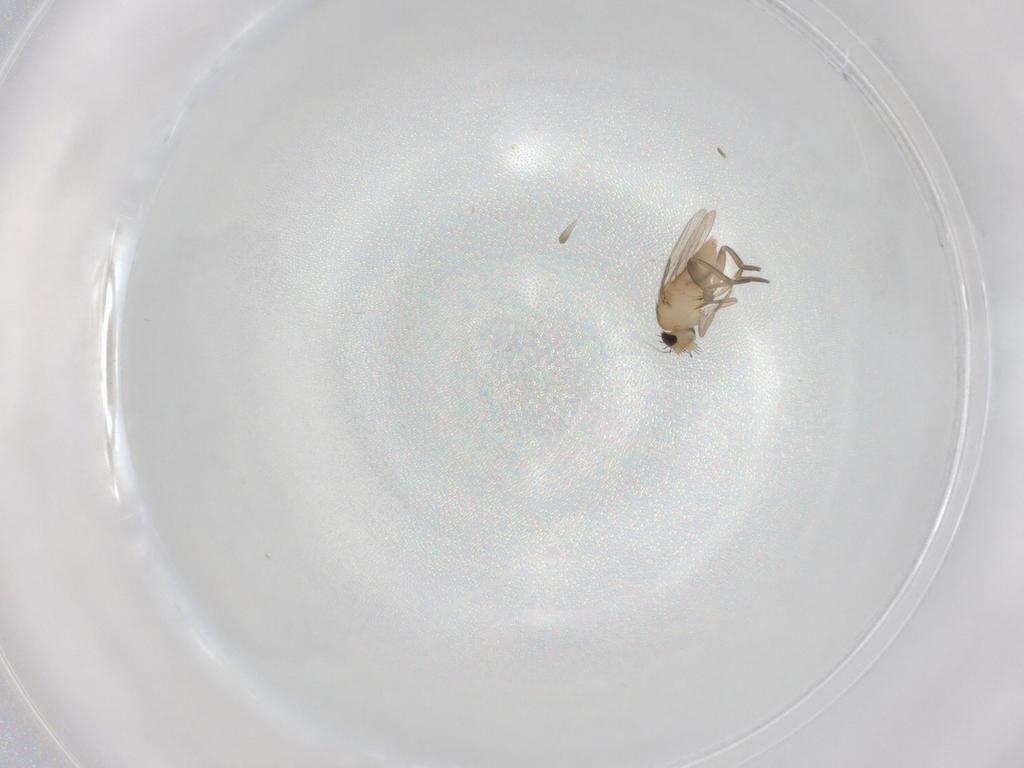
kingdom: Animalia
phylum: Arthropoda
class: Insecta
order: Diptera
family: Phoridae
